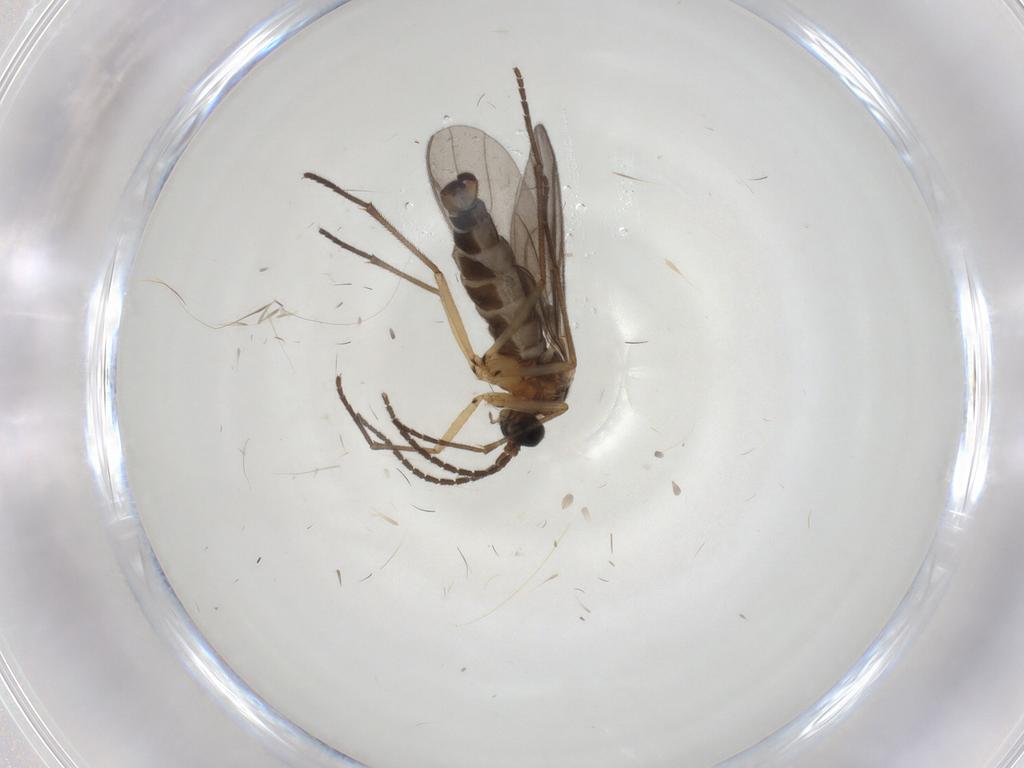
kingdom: Animalia
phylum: Arthropoda
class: Insecta
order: Diptera
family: Sciaridae
